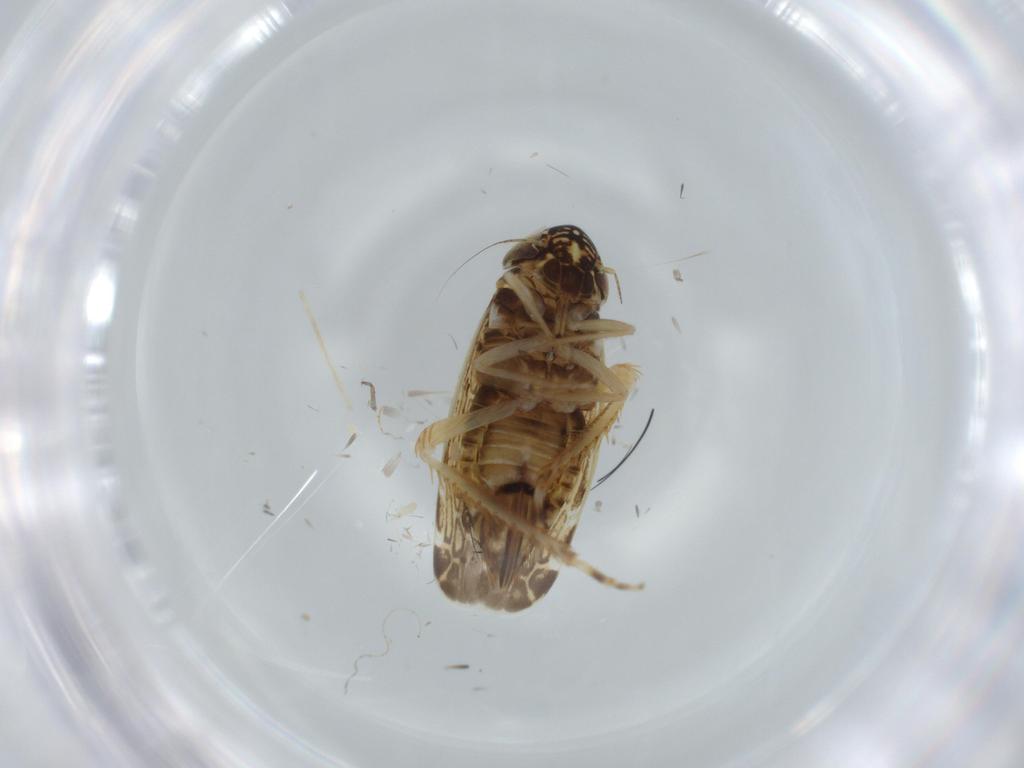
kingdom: Animalia
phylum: Arthropoda
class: Insecta
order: Hemiptera
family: Cicadellidae
